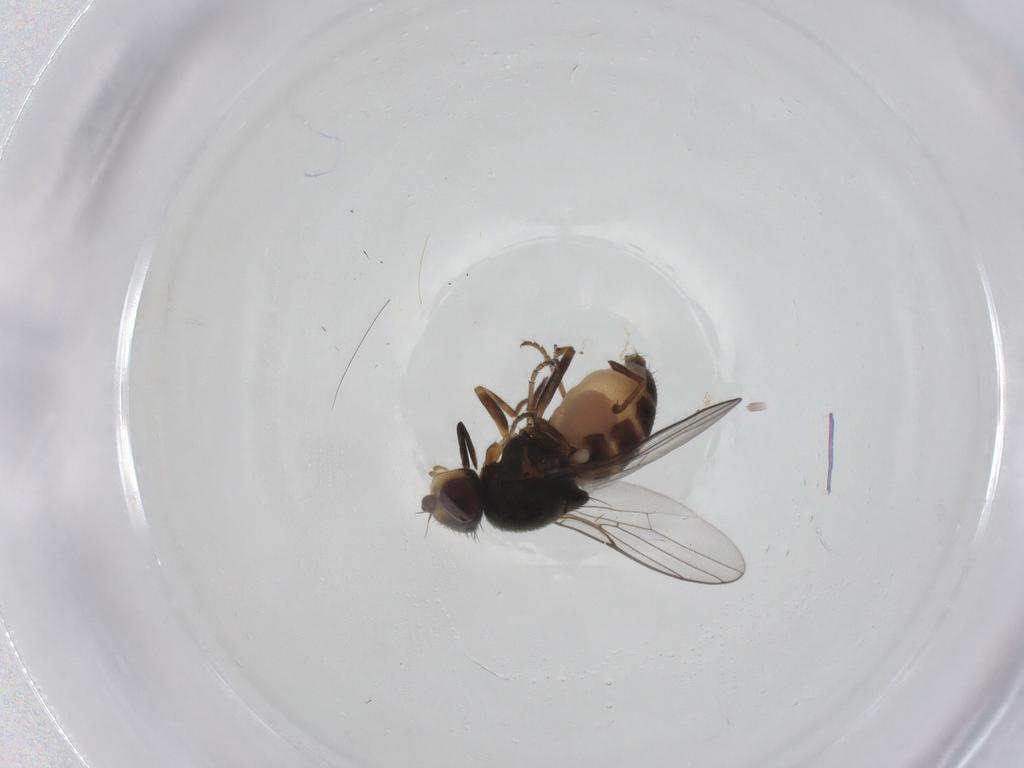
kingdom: Animalia
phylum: Arthropoda
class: Insecta
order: Diptera
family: Chloropidae
